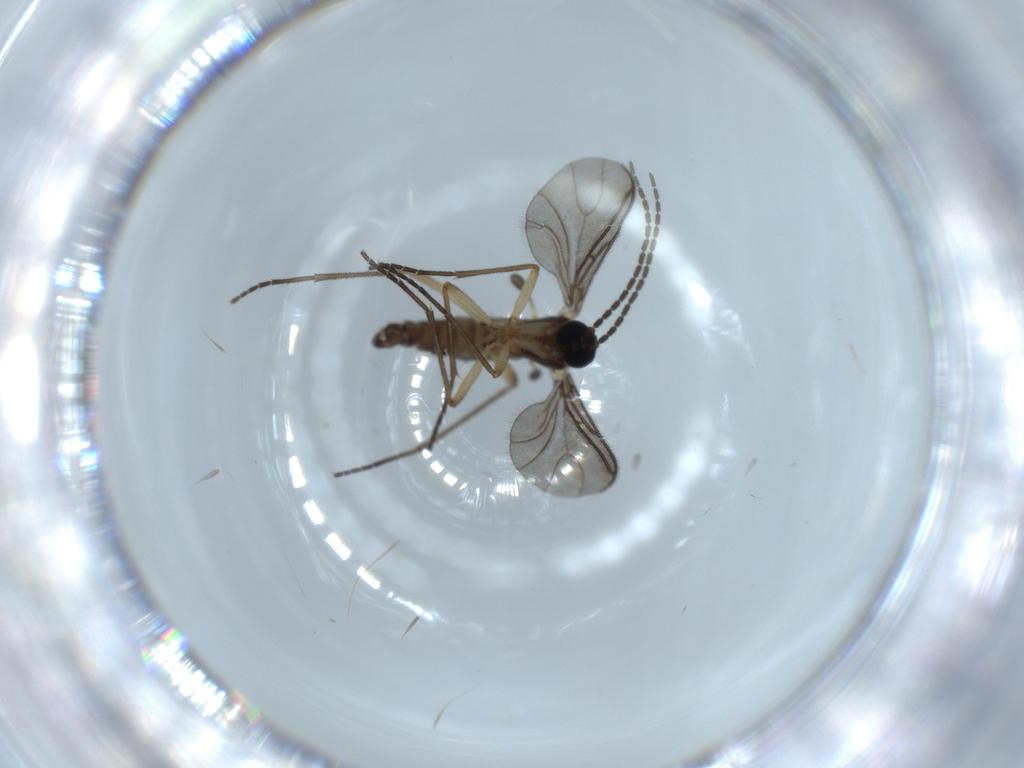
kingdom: Animalia
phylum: Arthropoda
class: Insecta
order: Diptera
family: Sciaridae
